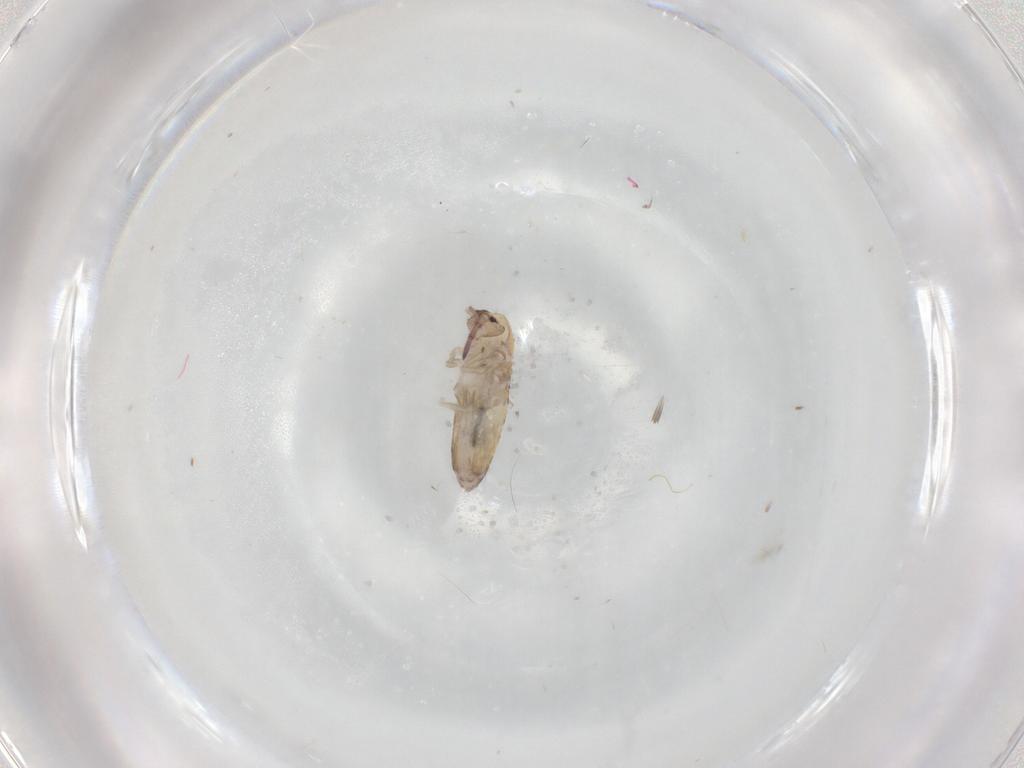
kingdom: Animalia
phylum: Arthropoda
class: Collembola
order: Entomobryomorpha
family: Entomobryidae
